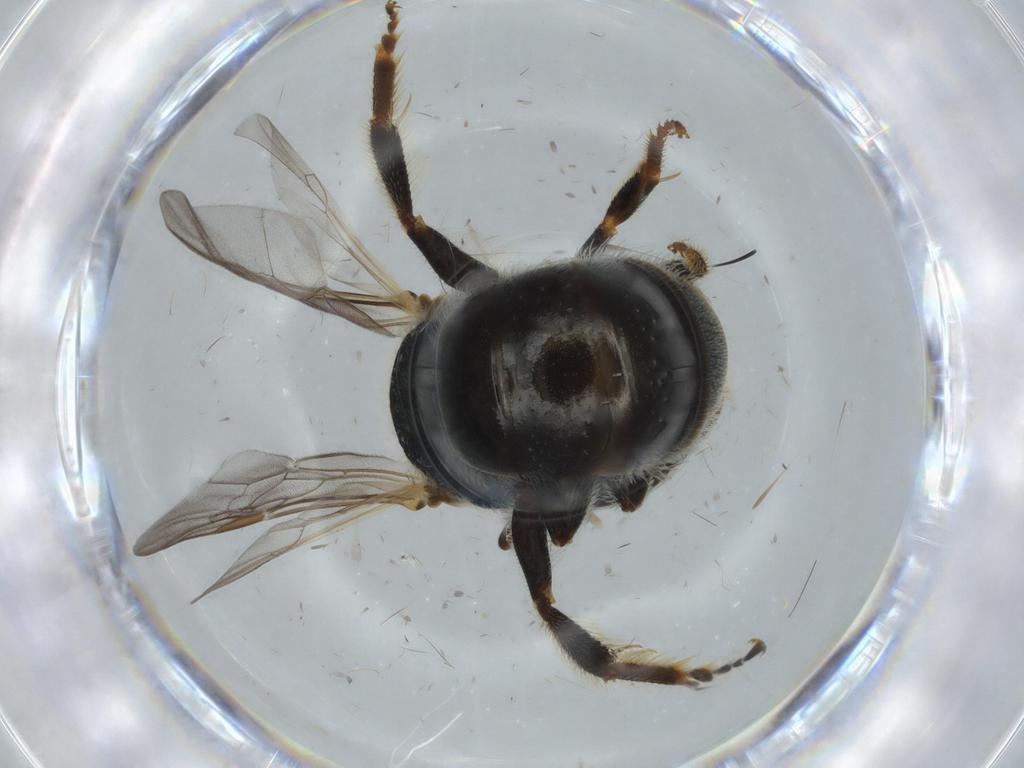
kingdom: Animalia
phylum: Arthropoda
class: Insecta
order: Hymenoptera
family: Halictidae
